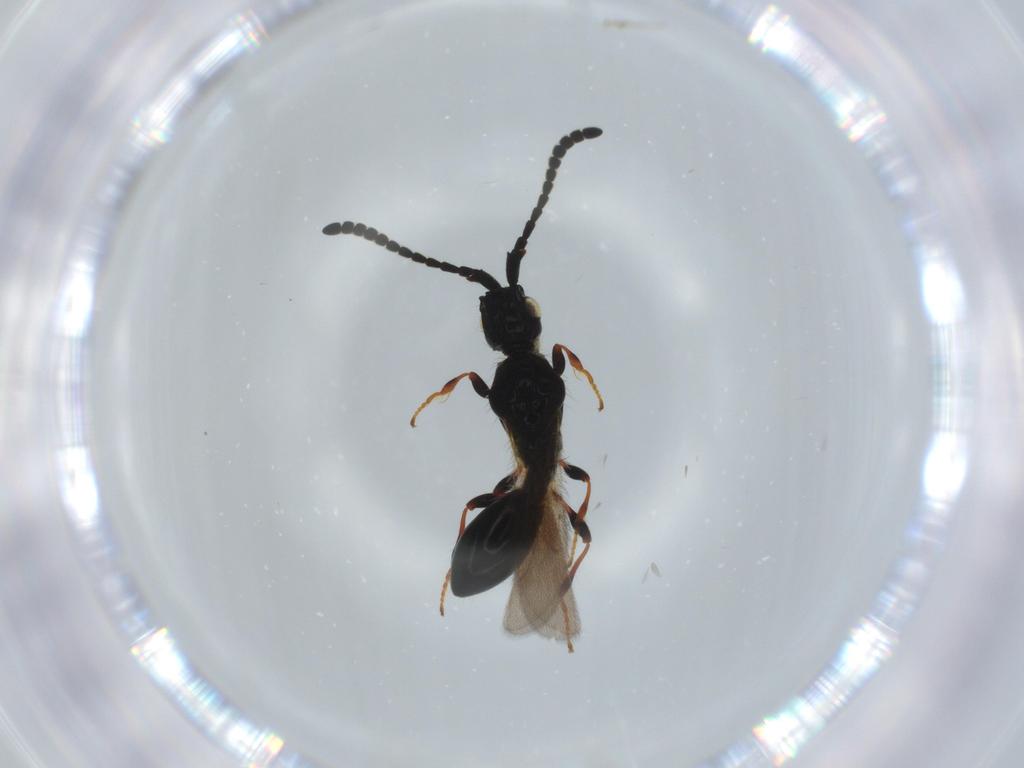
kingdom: Animalia
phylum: Arthropoda
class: Insecta
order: Hymenoptera
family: Diapriidae
